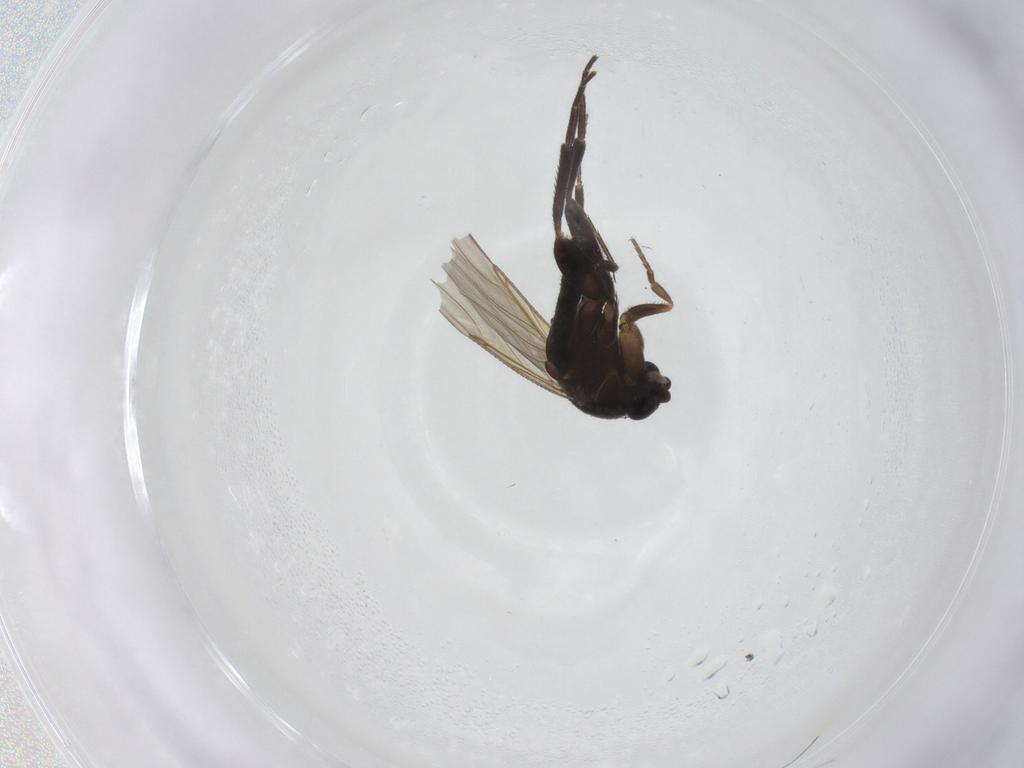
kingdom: Animalia
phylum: Arthropoda
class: Insecta
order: Diptera
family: Phoridae
